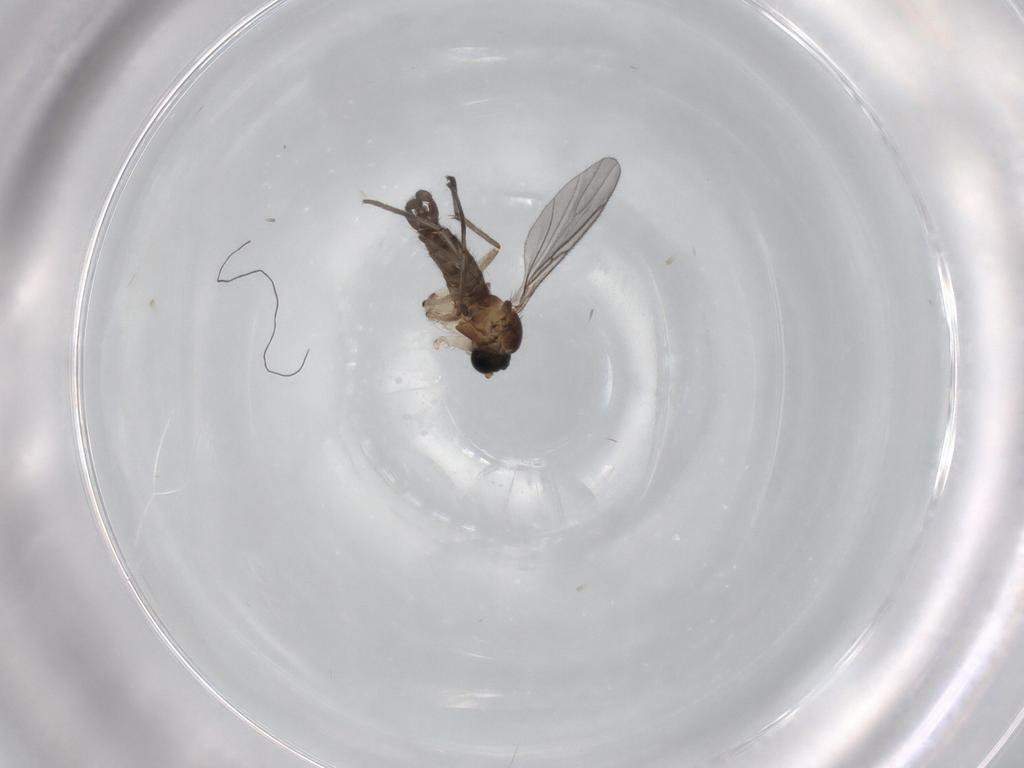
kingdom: Animalia
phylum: Arthropoda
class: Insecta
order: Diptera
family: Sciaridae
